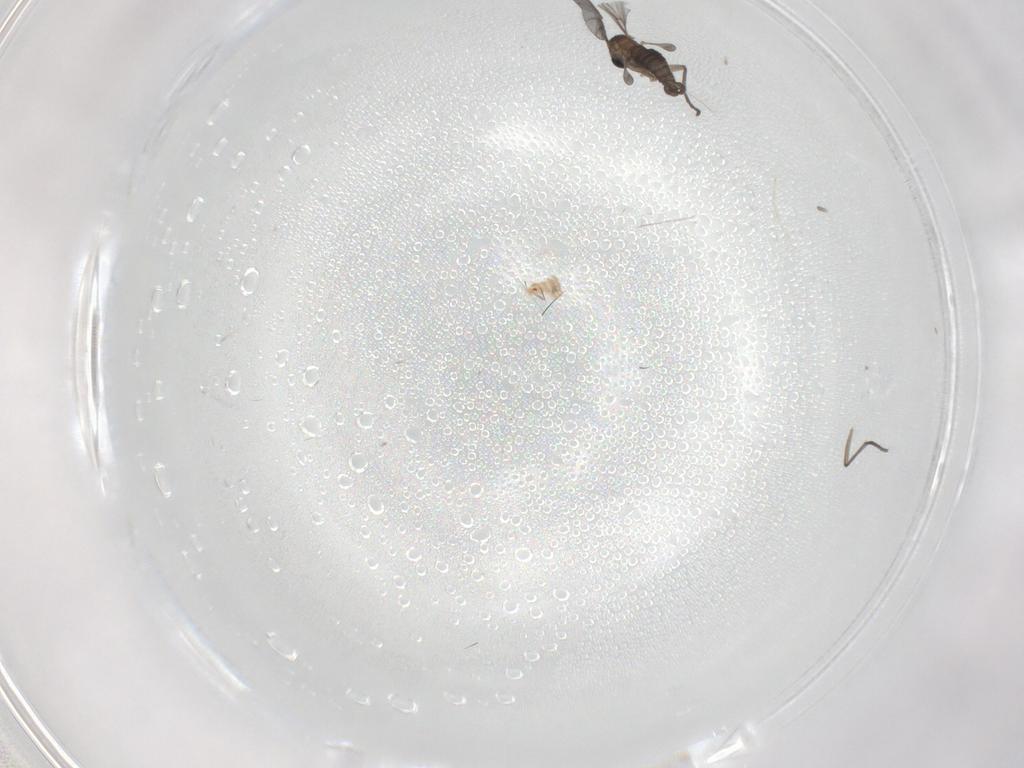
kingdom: Animalia
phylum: Arthropoda
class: Insecta
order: Diptera
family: Sciaridae
